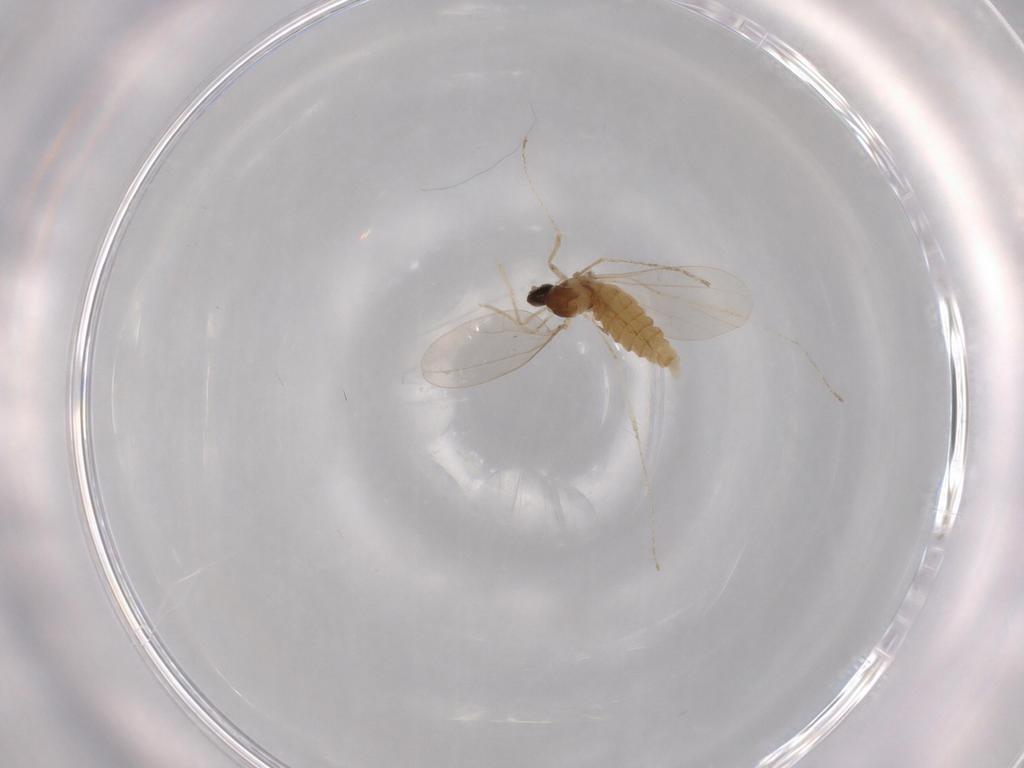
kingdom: Animalia
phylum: Arthropoda
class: Insecta
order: Diptera
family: Cecidomyiidae
